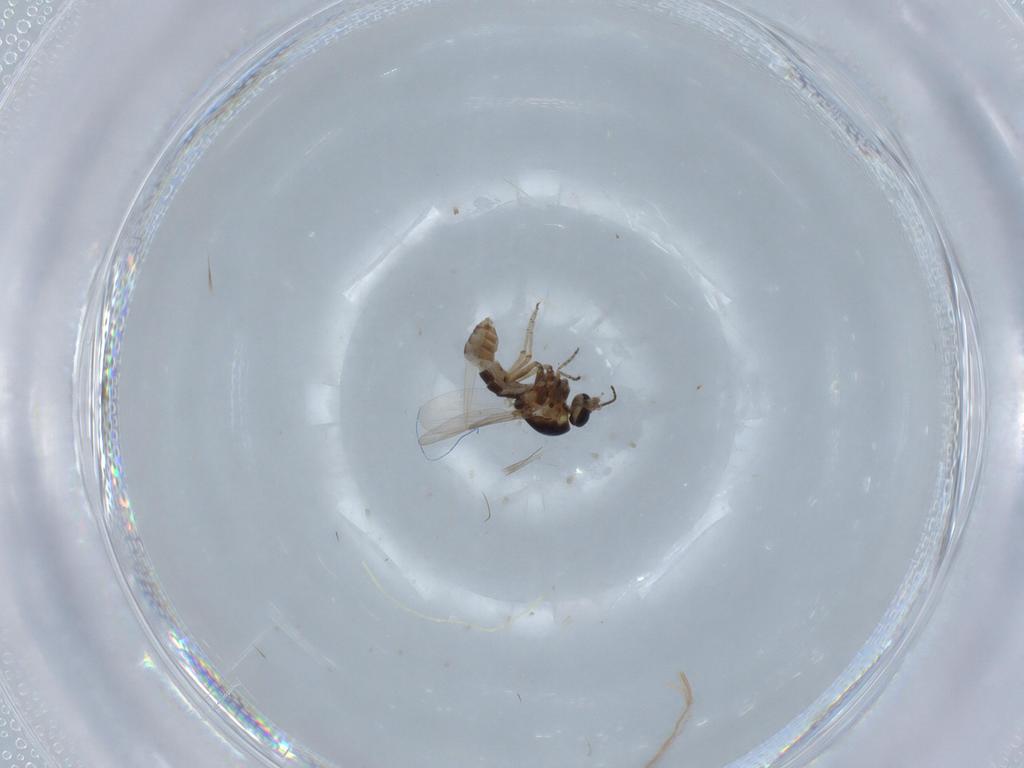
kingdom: Animalia
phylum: Arthropoda
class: Insecta
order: Diptera
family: Ceratopogonidae
